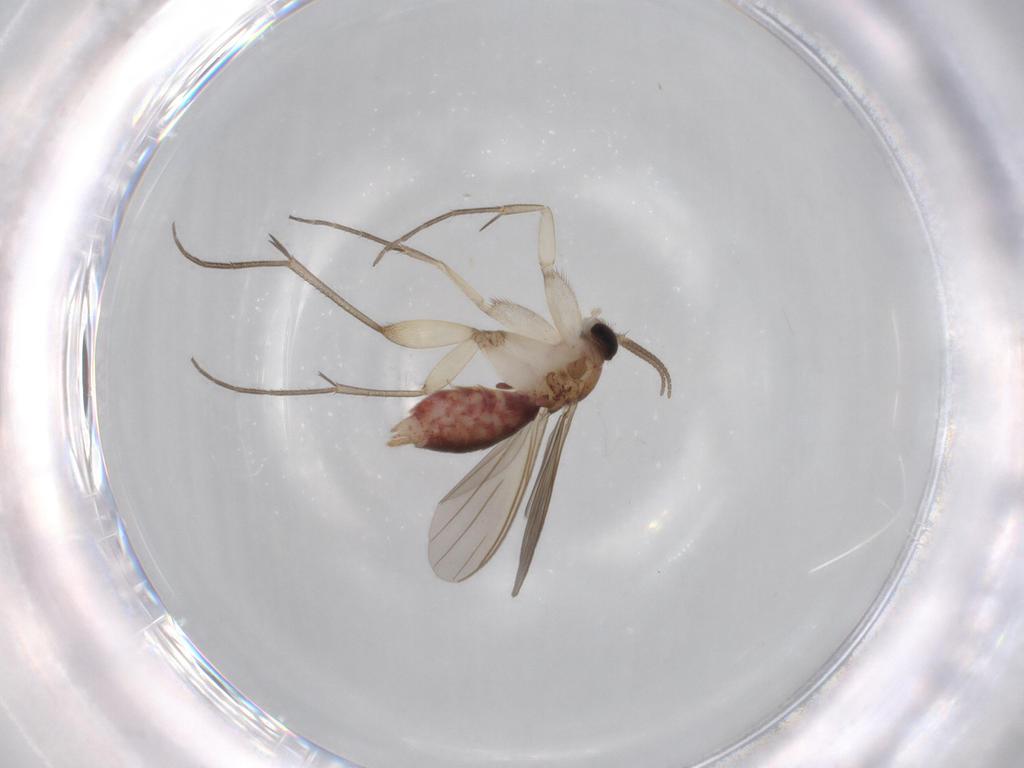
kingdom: Animalia
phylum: Arthropoda
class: Insecta
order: Diptera
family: Mycetophilidae
